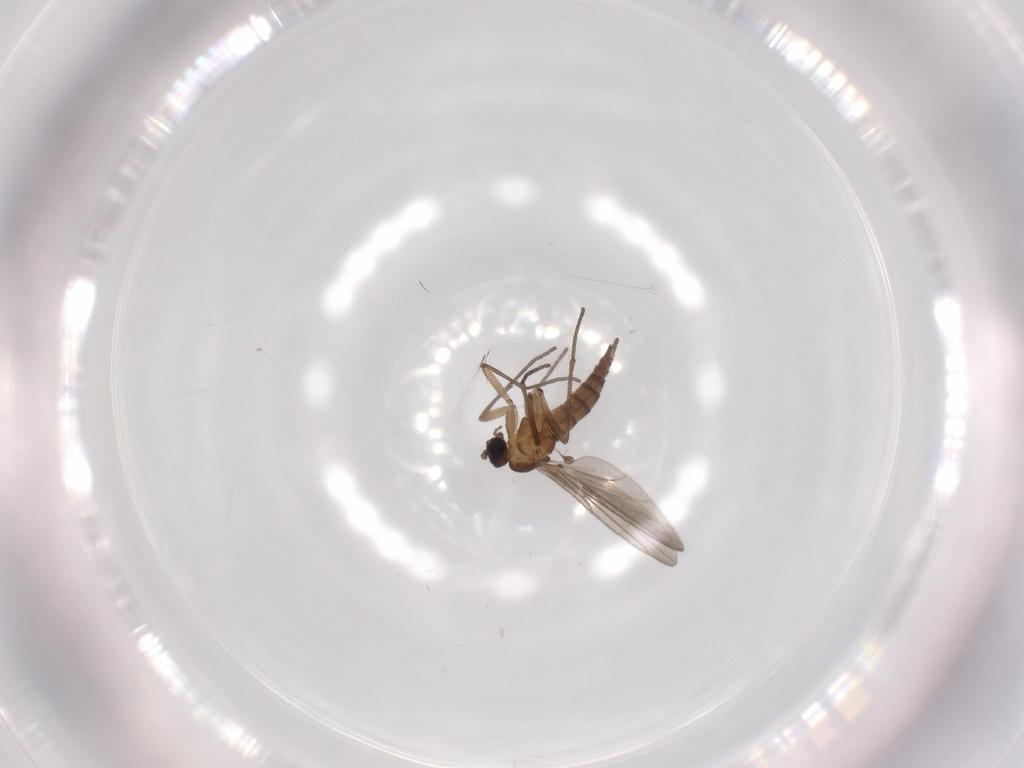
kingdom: Animalia
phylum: Arthropoda
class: Insecta
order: Diptera
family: Sciaridae
